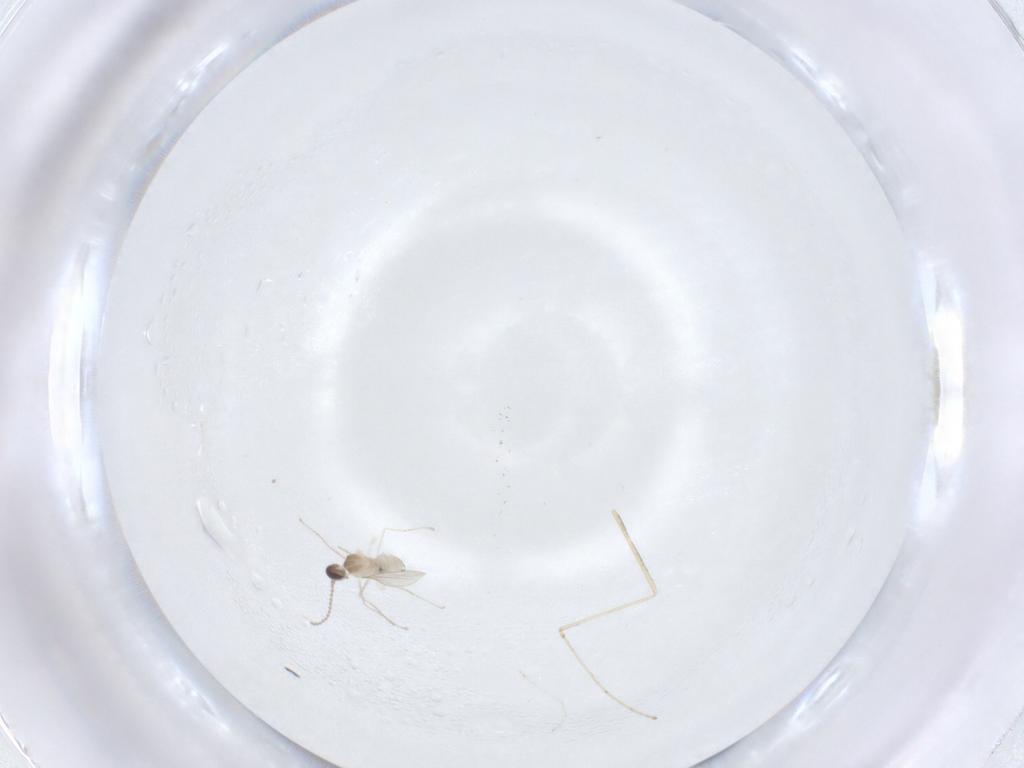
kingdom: Animalia
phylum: Arthropoda
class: Insecta
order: Diptera
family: Cecidomyiidae
